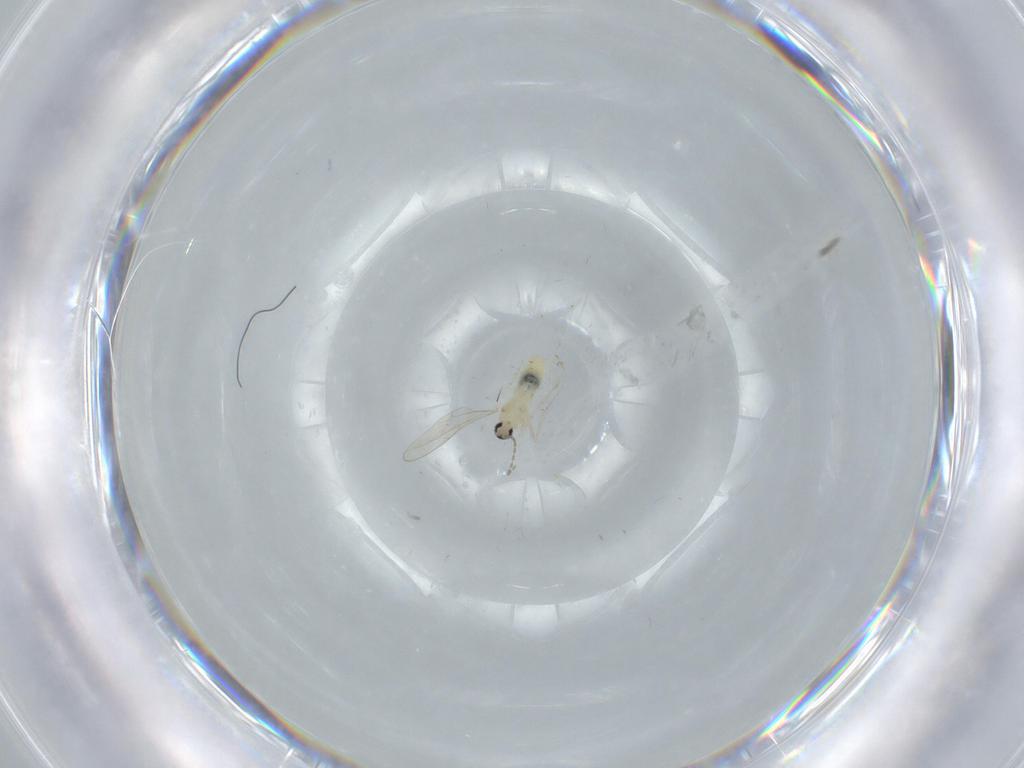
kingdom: Animalia
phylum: Arthropoda
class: Insecta
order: Diptera
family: Cecidomyiidae
